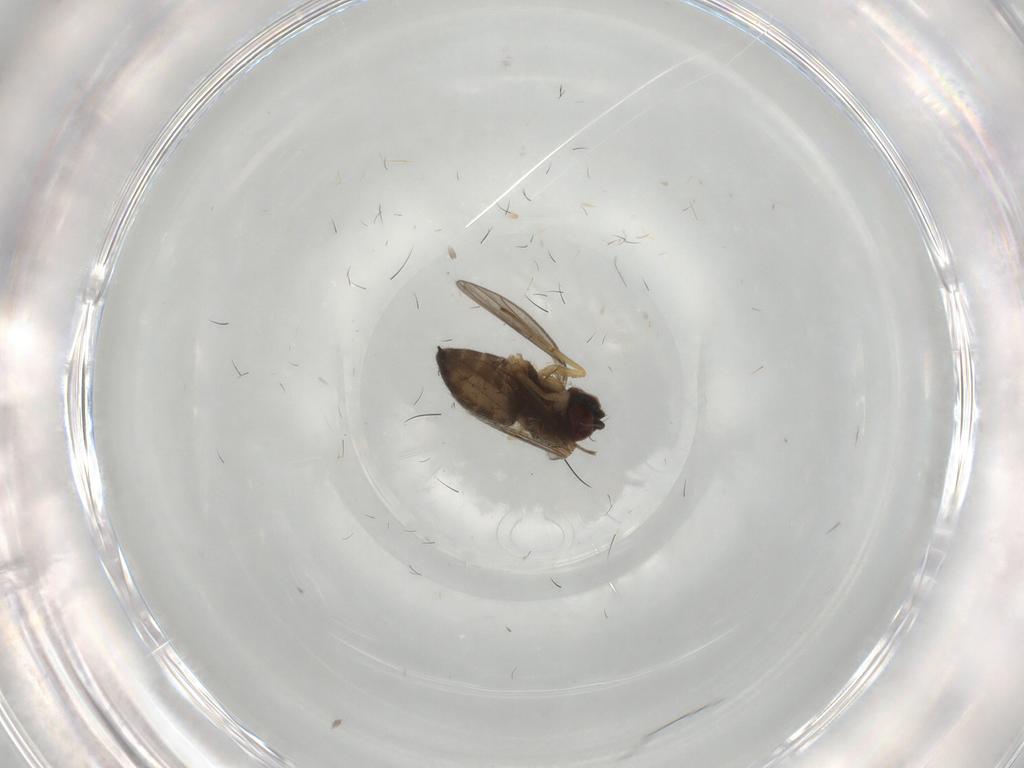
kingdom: Animalia
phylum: Arthropoda
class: Insecta
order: Diptera
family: Dolichopodidae
